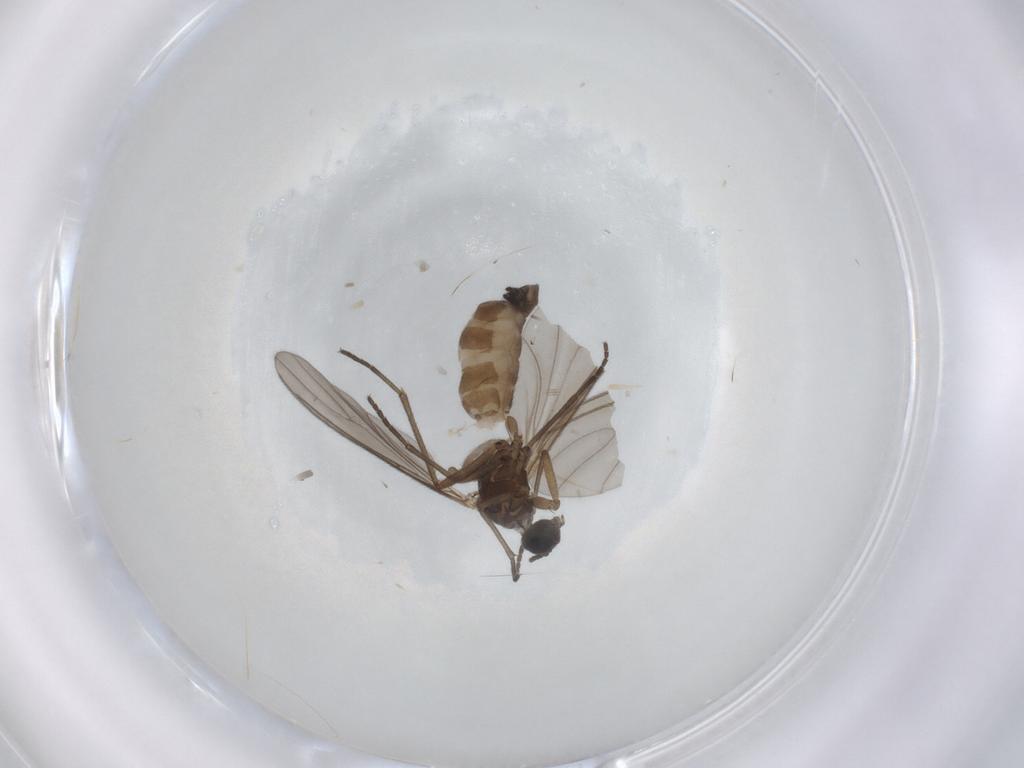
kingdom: Animalia
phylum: Arthropoda
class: Insecta
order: Diptera
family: Sciaridae
